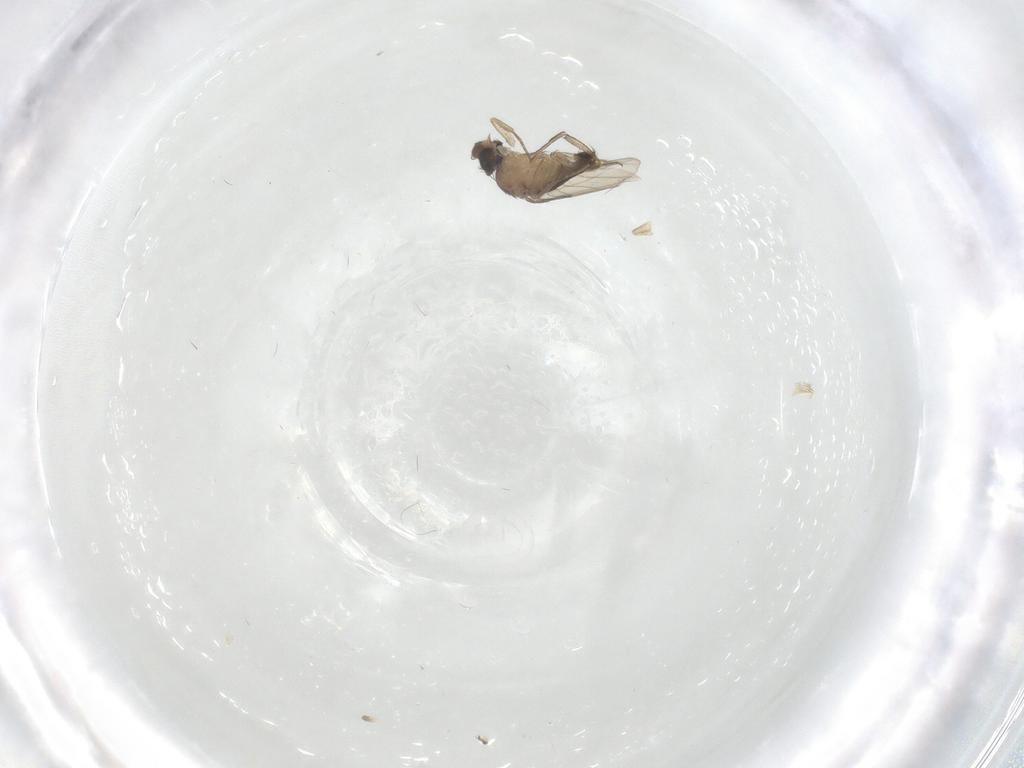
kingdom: Animalia
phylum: Arthropoda
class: Insecta
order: Diptera
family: Phoridae
